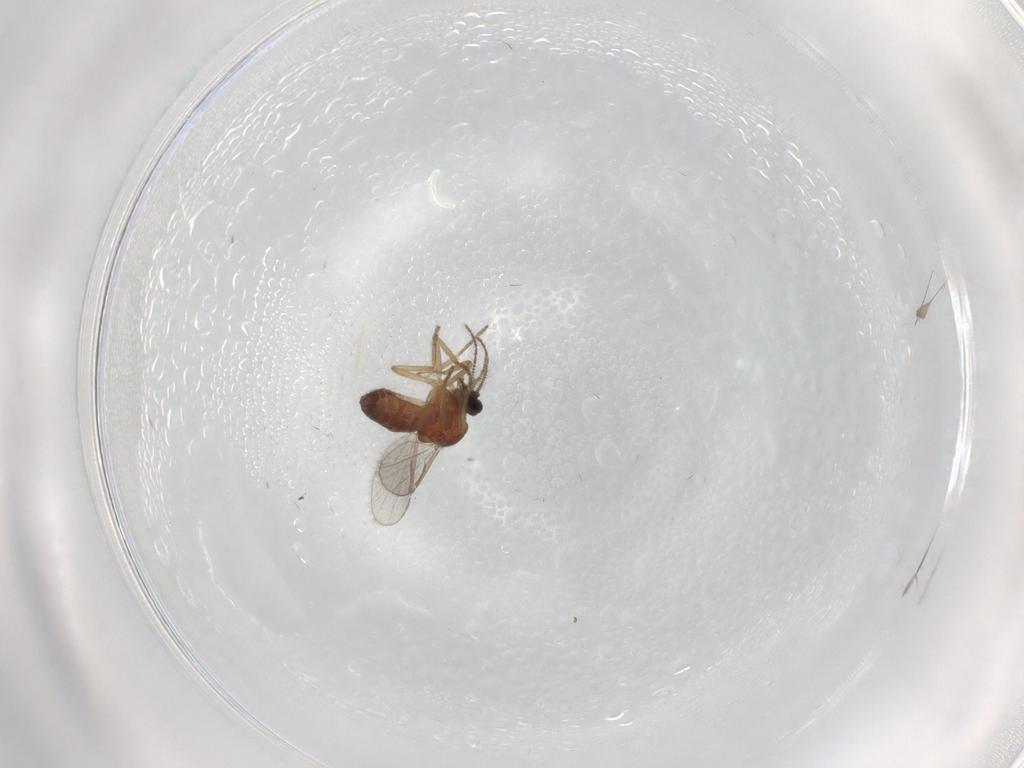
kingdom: Animalia
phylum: Arthropoda
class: Insecta
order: Diptera
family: Ceratopogonidae
